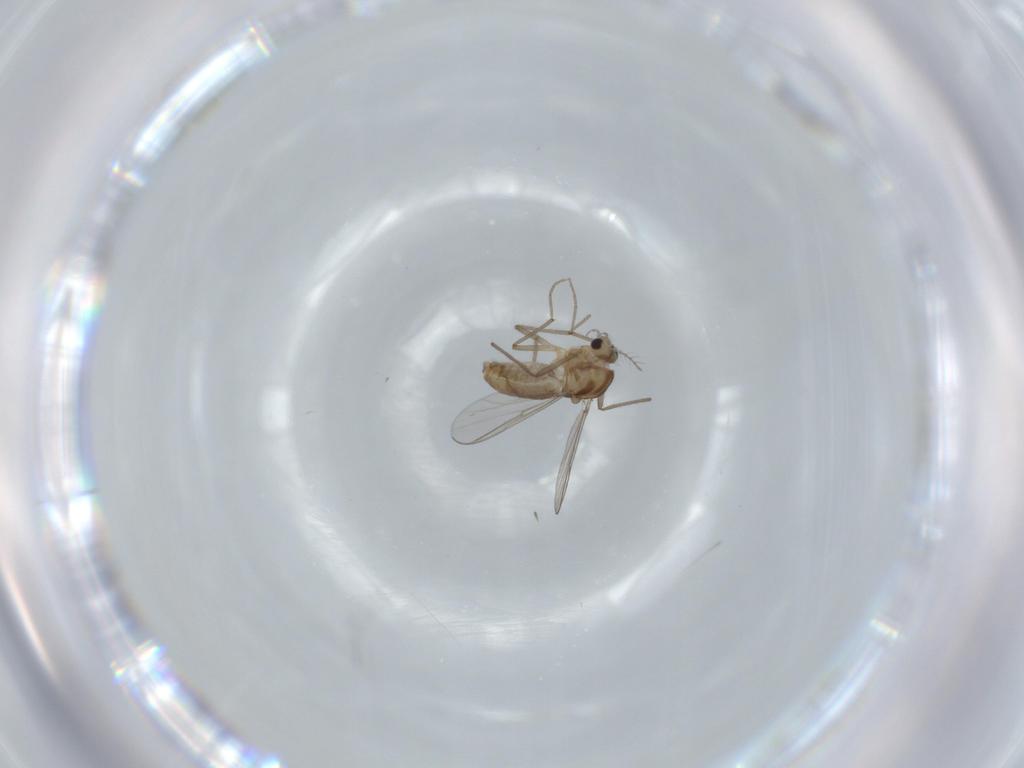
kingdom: Animalia
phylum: Arthropoda
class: Insecta
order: Diptera
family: Sciaridae
